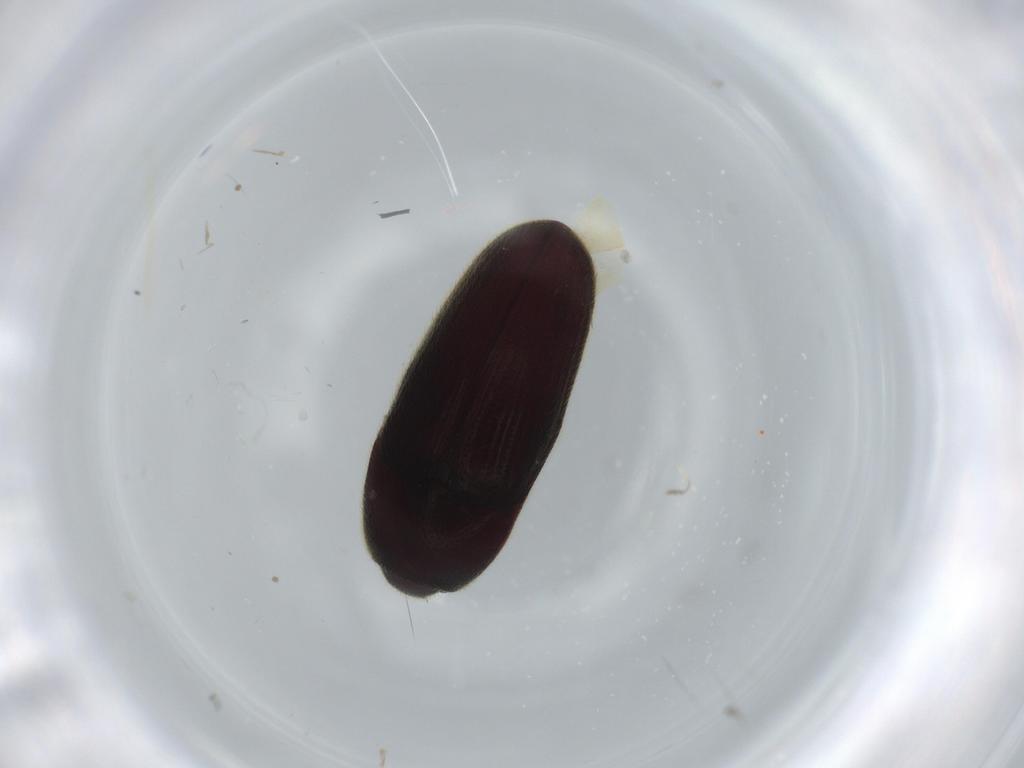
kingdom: Animalia
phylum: Arthropoda
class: Insecta
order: Coleoptera
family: Throscidae
